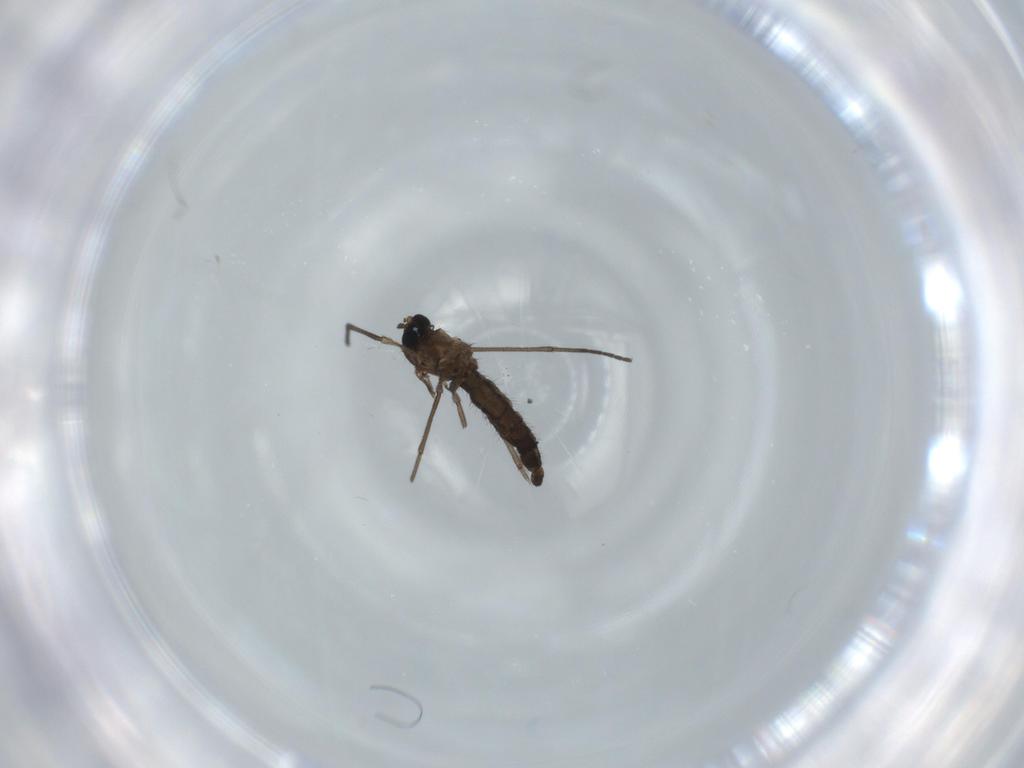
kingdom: Animalia
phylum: Arthropoda
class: Insecta
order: Diptera
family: Sciaridae
